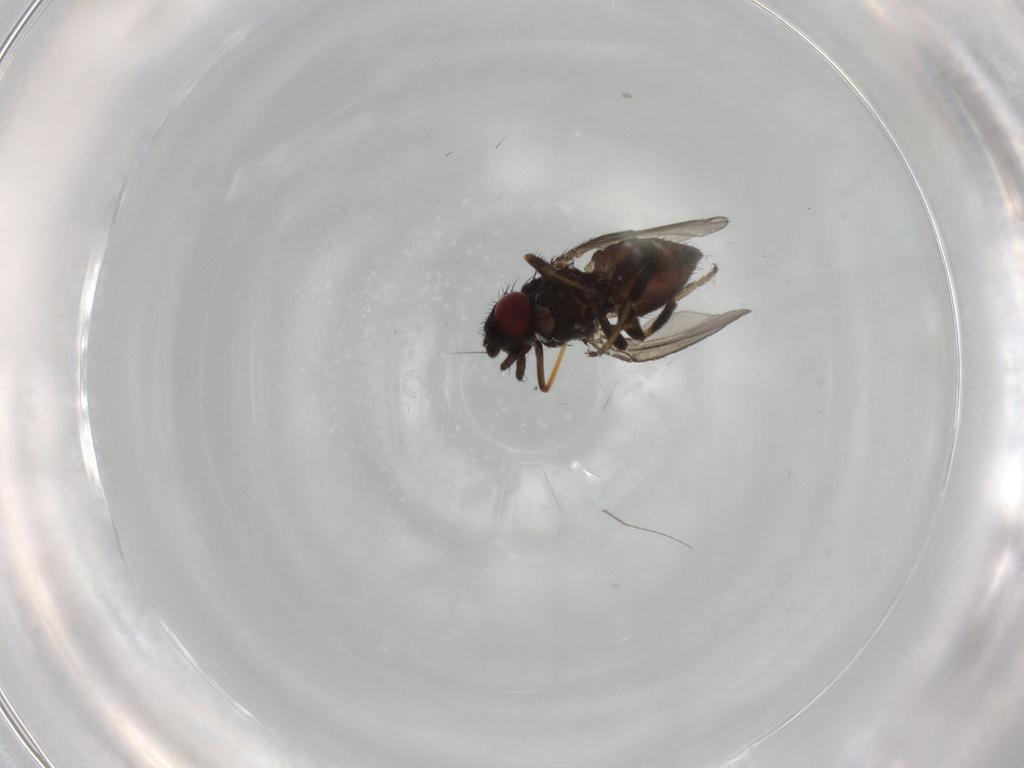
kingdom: Animalia
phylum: Arthropoda
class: Insecta
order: Diptera
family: Milichiidae
